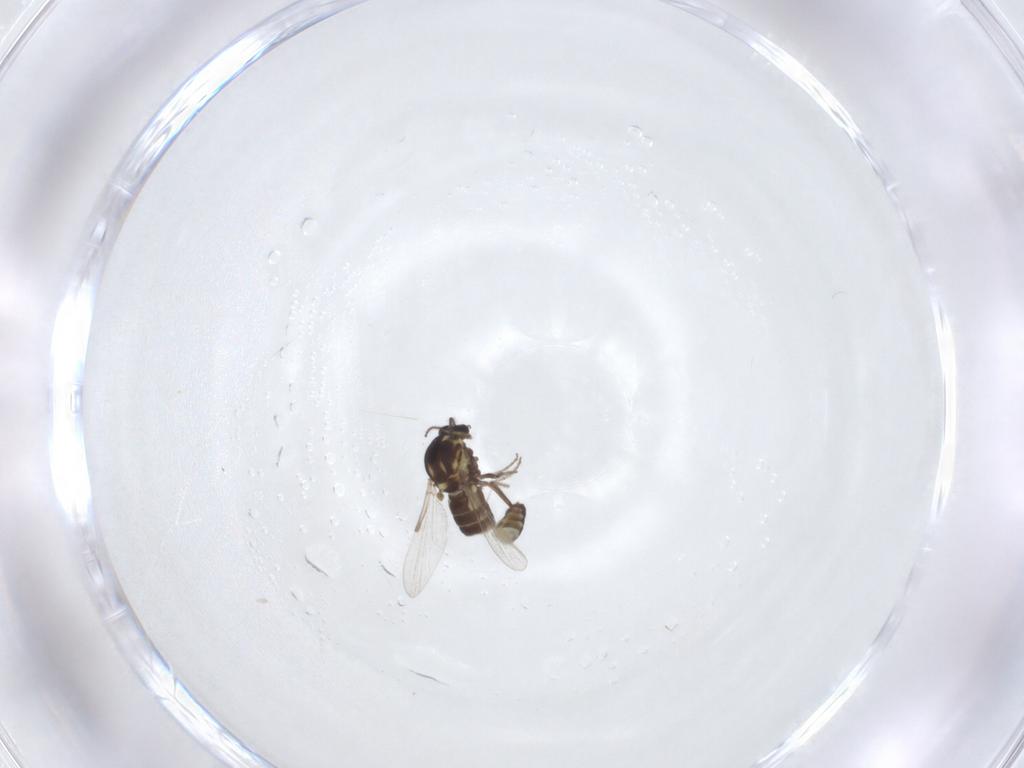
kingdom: Animalia
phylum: Arthropoda
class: Insecta
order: Diptera
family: Ceratopogonidae
